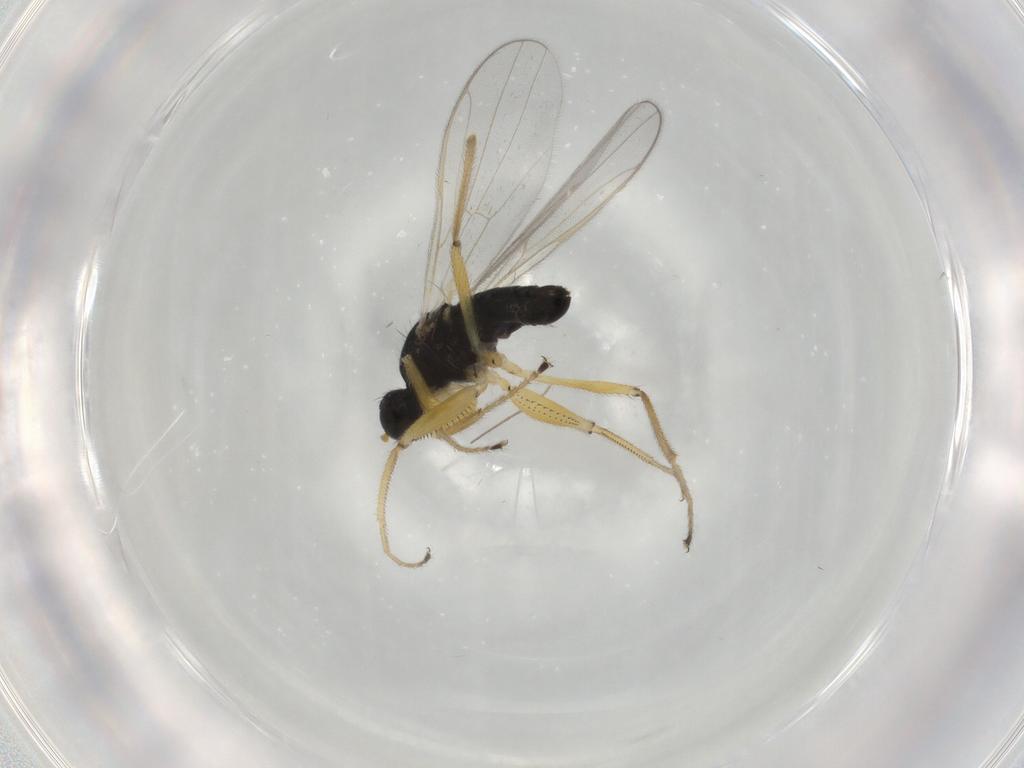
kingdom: Animalia
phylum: Arthropoda
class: Insecta
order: Diptera
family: Hybotidae
